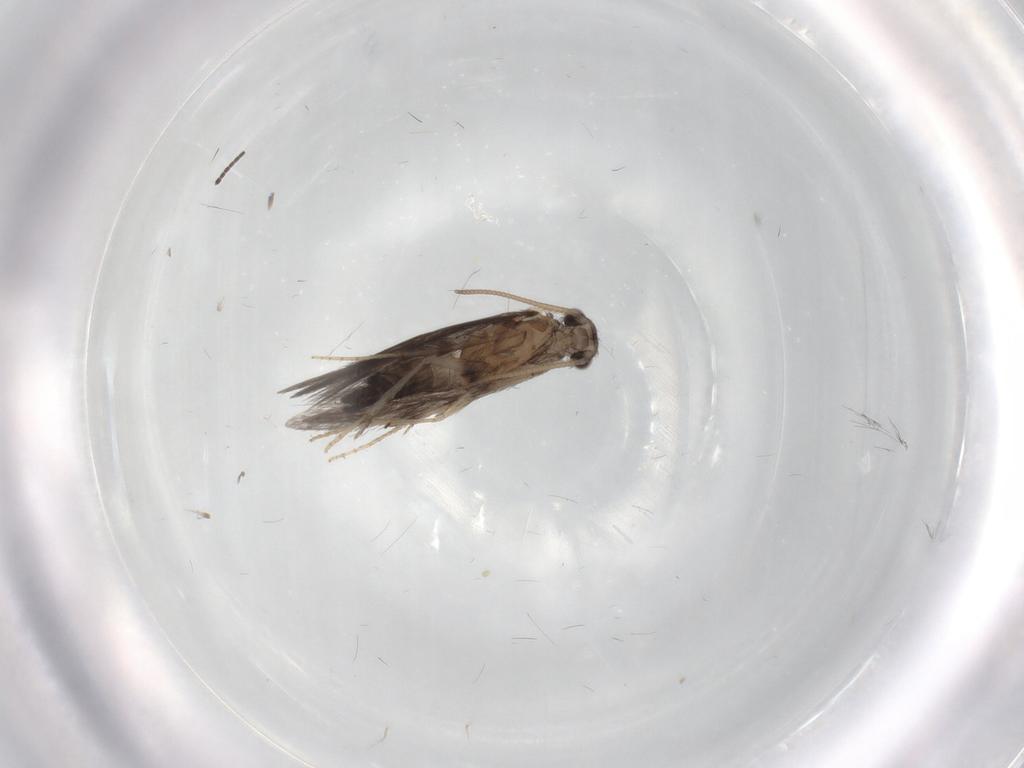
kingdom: Animalia
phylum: Arthropoda
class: Insecta
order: Trichoptera
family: Hydroptilidae
